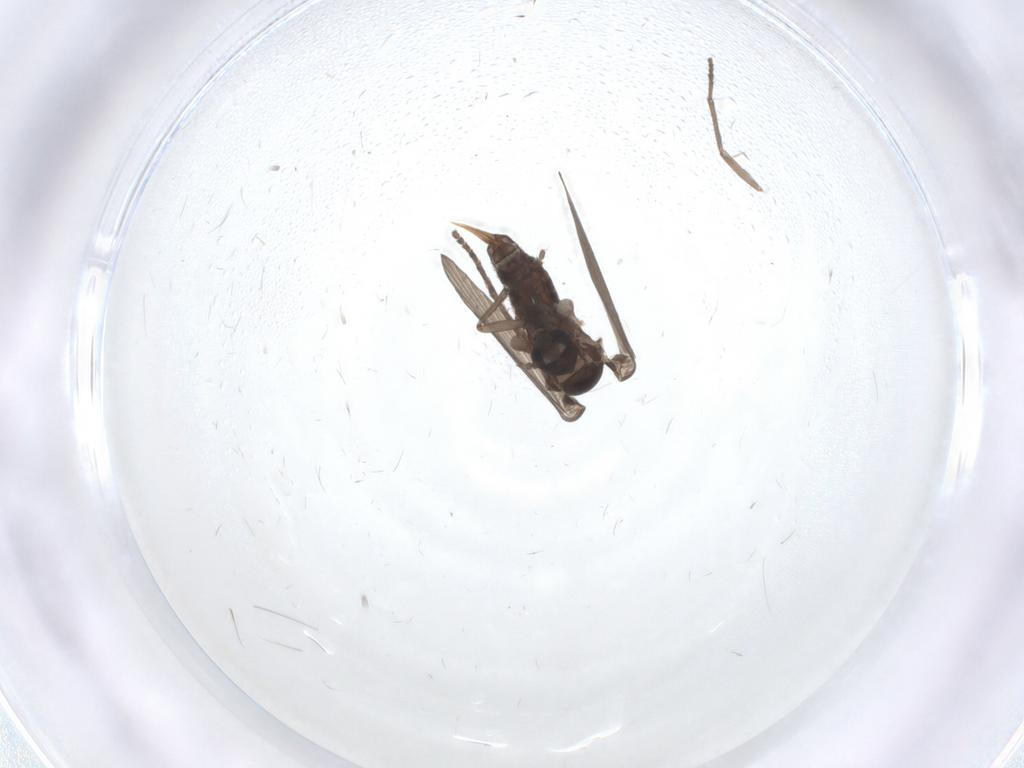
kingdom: Animalia
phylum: Arthropoda
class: Insecta
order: Diptera
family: Psychodidae
